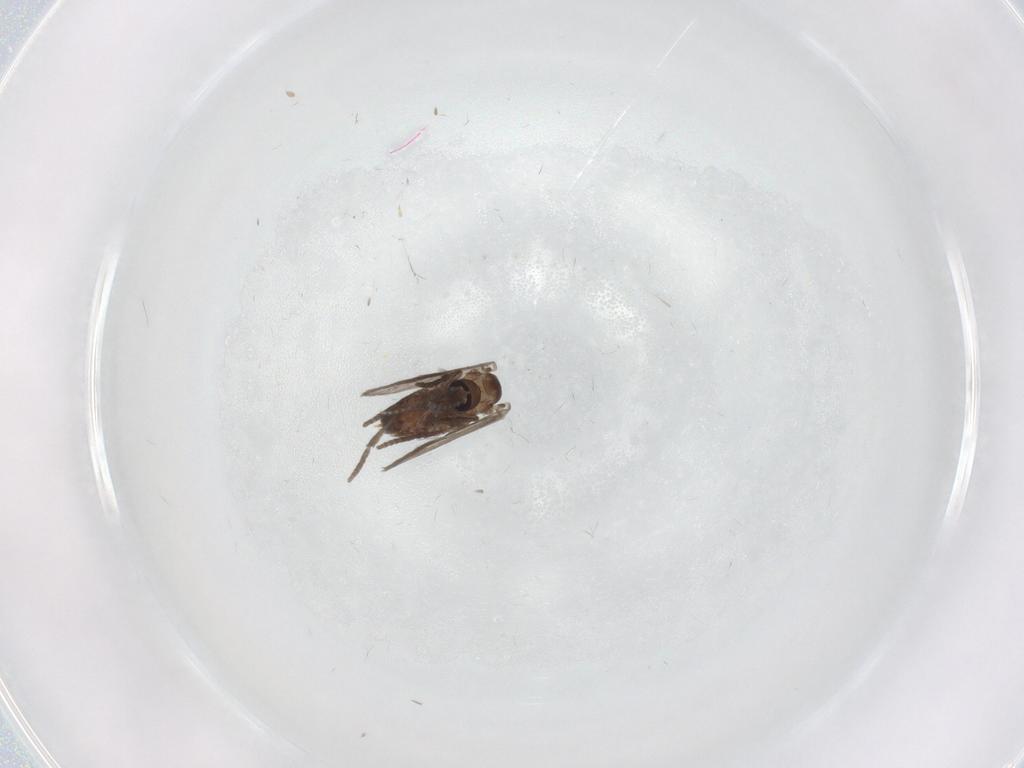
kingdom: Animalia
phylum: Arthropoda
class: Insecta
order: Diptera
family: Psychodidae
